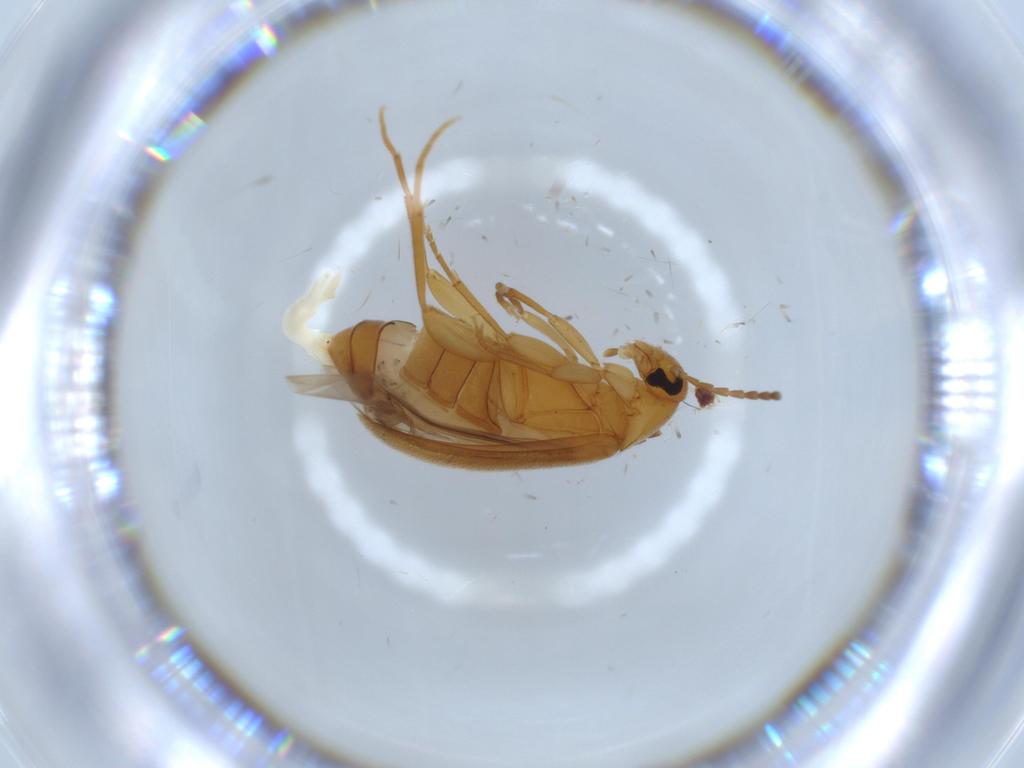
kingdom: Animalia
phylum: Arthropoda
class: Insecta
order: Coleoptera
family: Scraptiidae
